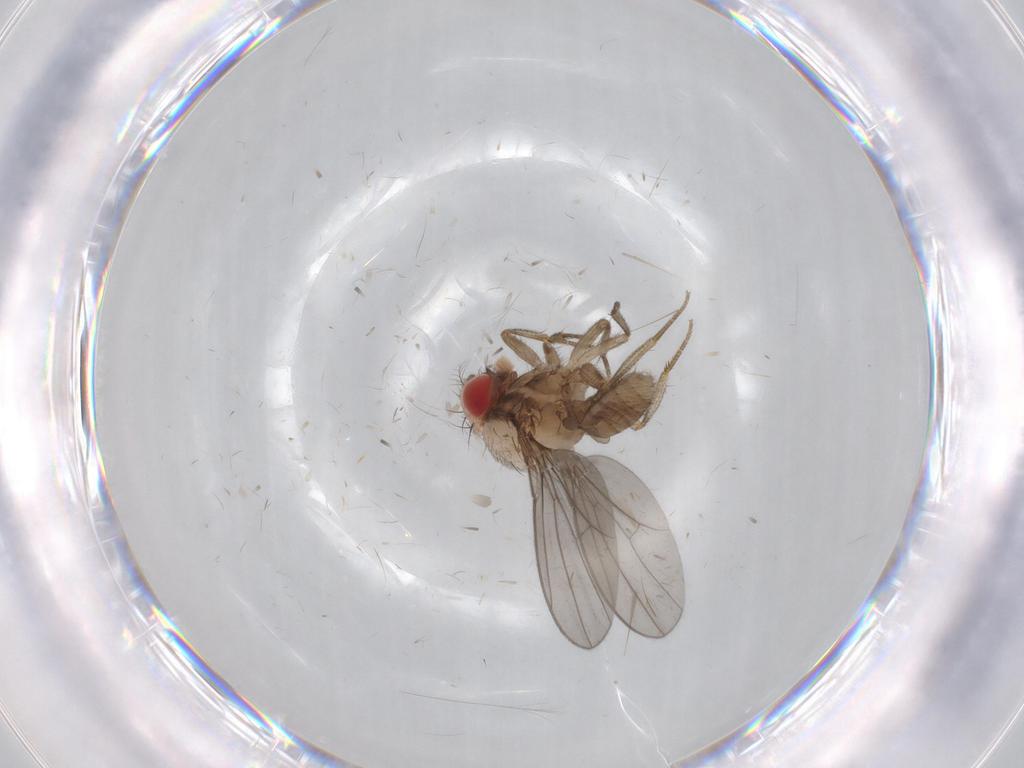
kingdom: Animalia
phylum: Arthropoda
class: Insecta
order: Diptera
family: Drosophilidae
